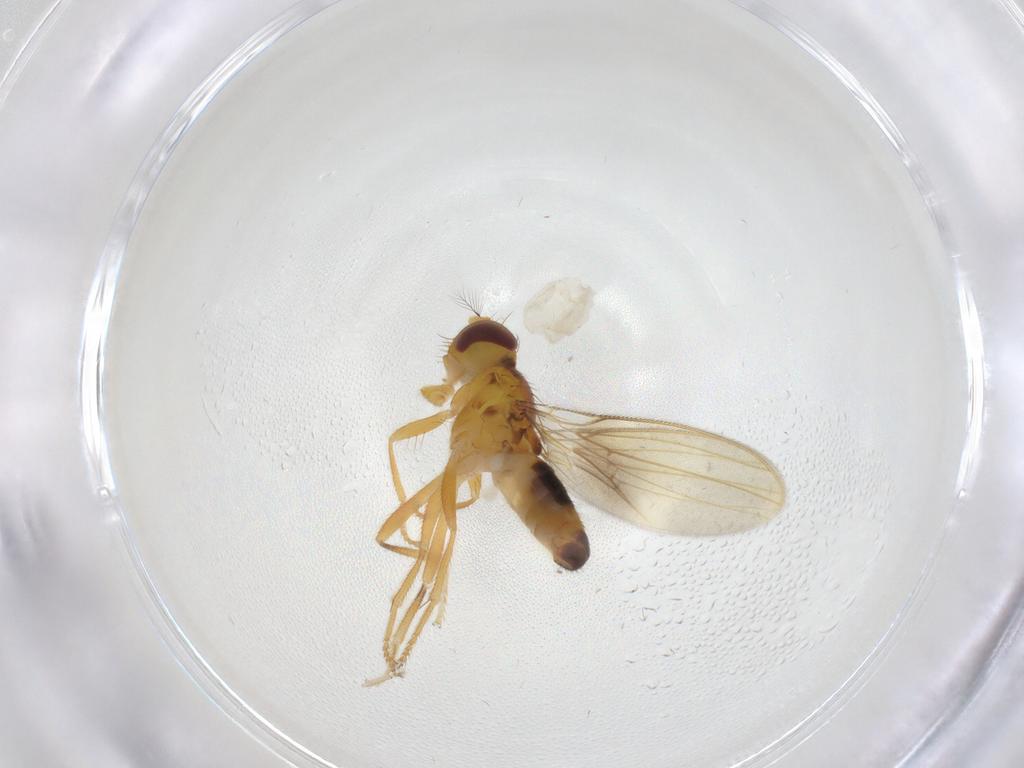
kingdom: Animalia
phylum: Arthropoda
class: Insecta
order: Diptera
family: Periscelididae
